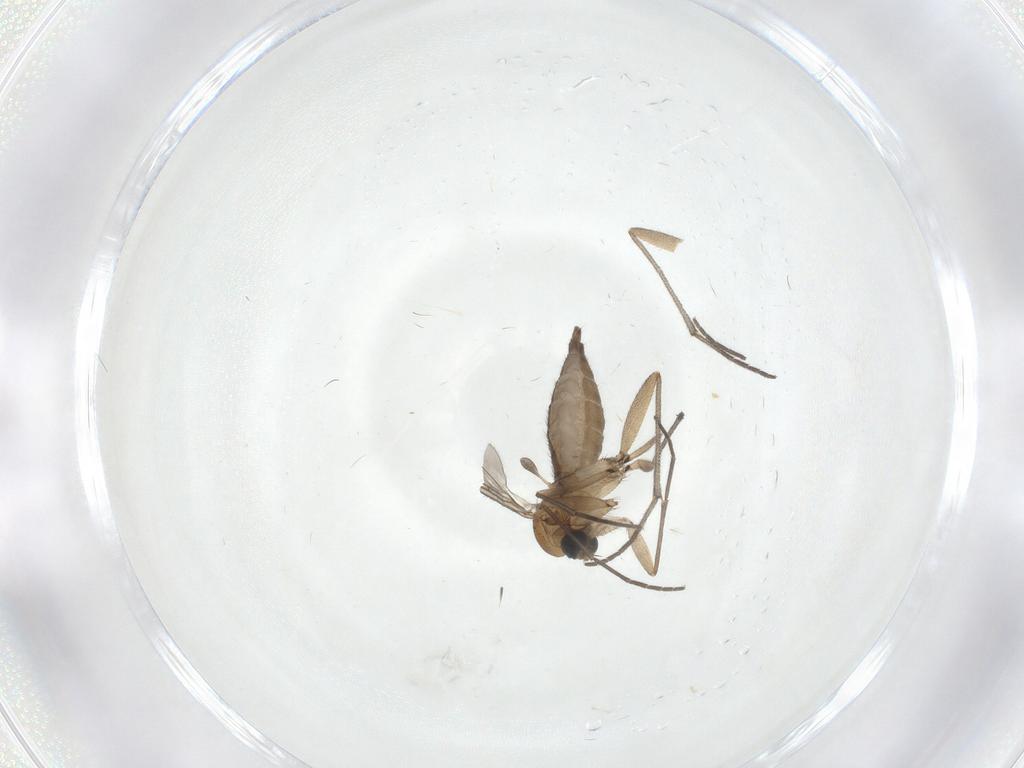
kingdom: Animalia
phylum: Arthropoda
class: Insecta
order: Diptera
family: Sciaridae
